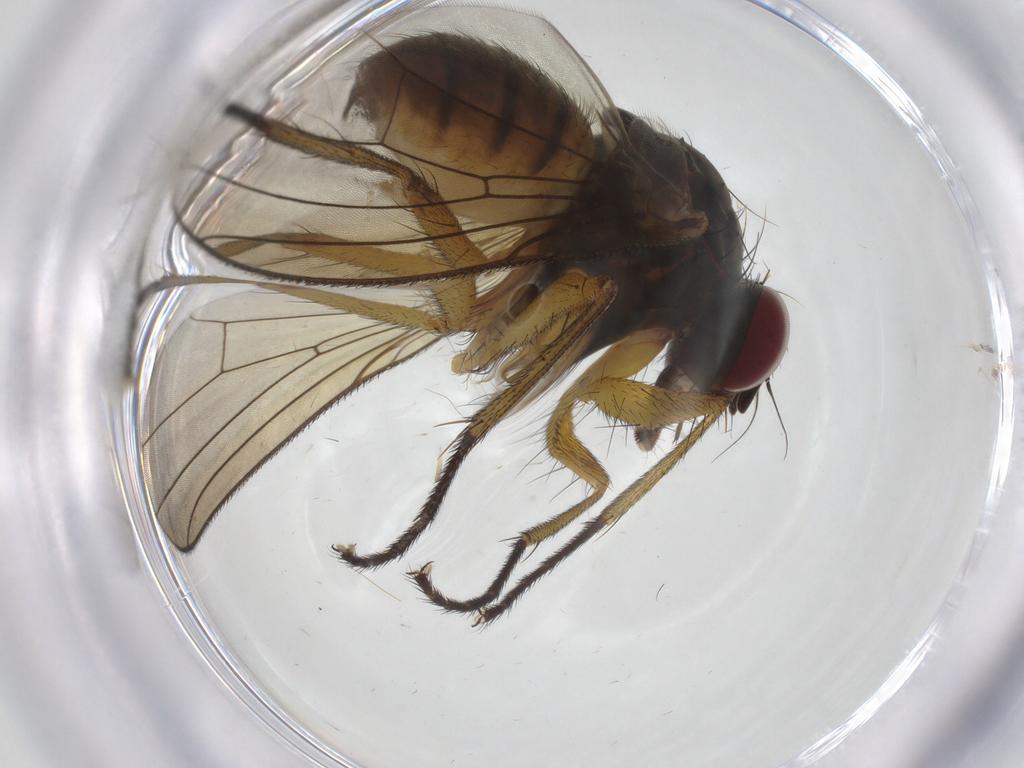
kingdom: Animalia
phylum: Arthropoda
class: Insecta
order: Diptera
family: Muscidae
